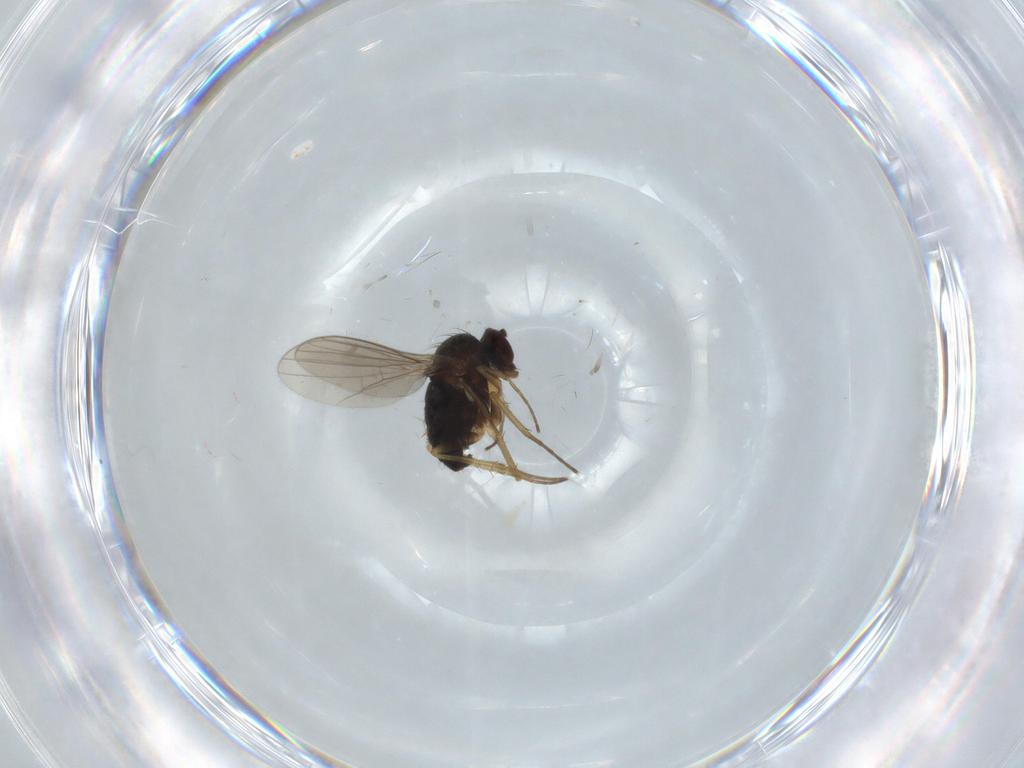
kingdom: Animalia
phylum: Arthropoda
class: Insecta
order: Diptera
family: Dolichopodidae
